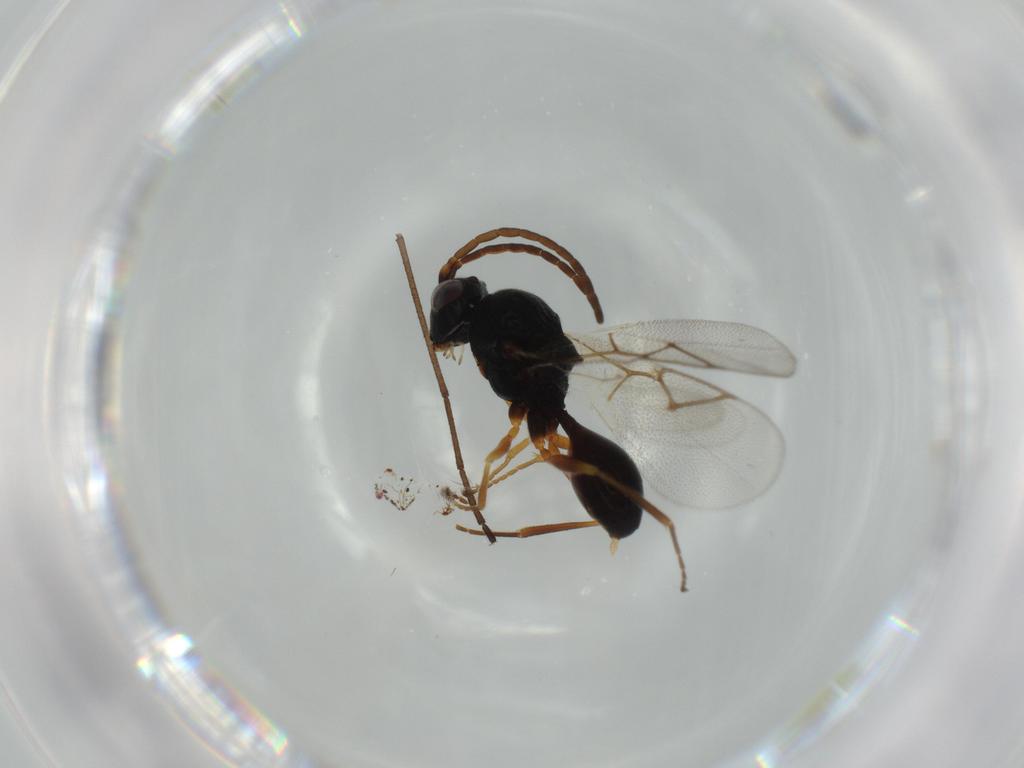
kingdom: Animalia
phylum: Arthropoda
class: Insecta
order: Hymenoptera
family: Figitidae
